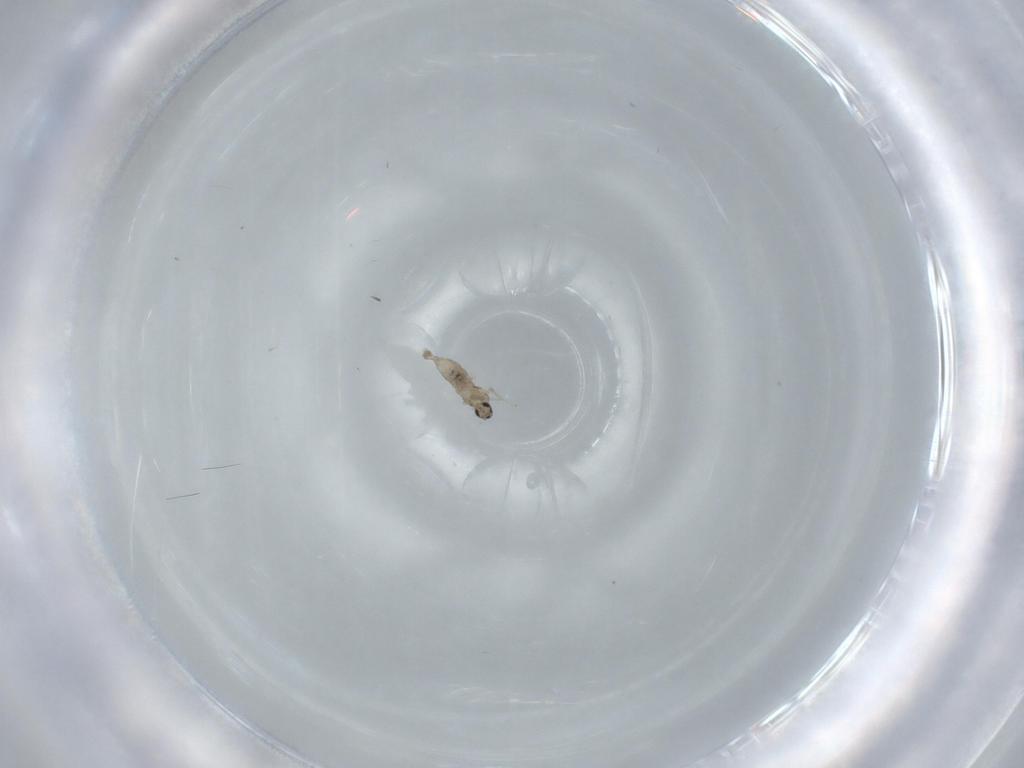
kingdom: Animalia
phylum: Arthropoda
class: Insecta
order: Diptera
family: Cecidomyiidae
